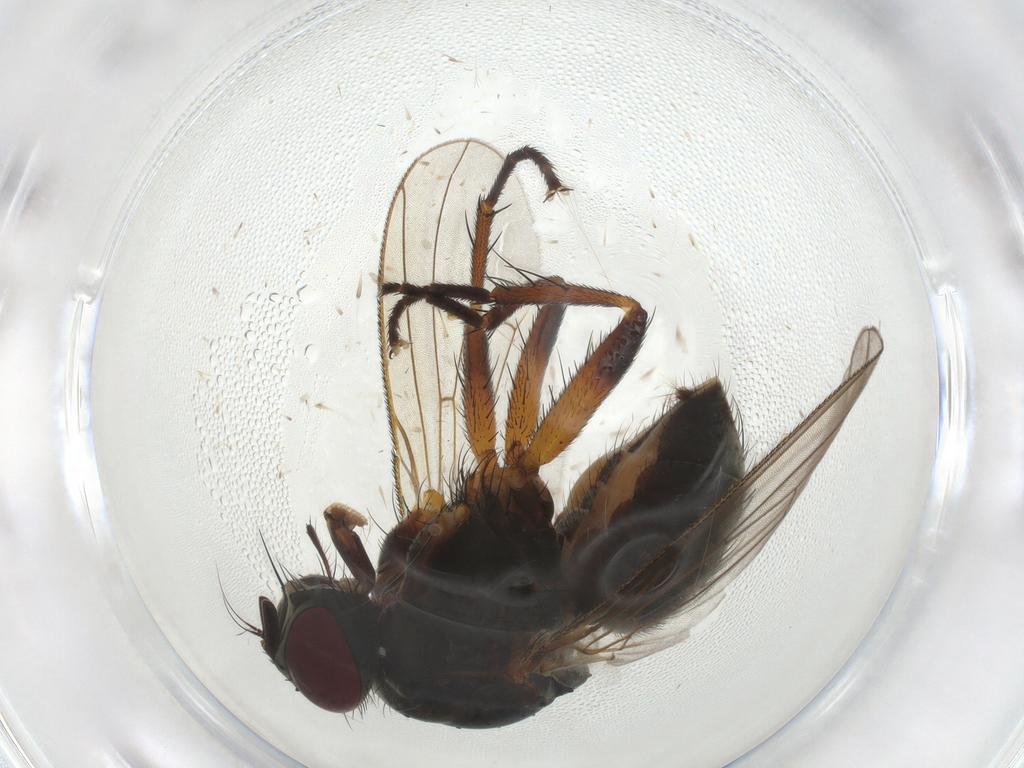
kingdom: Animalia
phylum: Arthropoda
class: Insecta
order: Diptera
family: Muscidae
